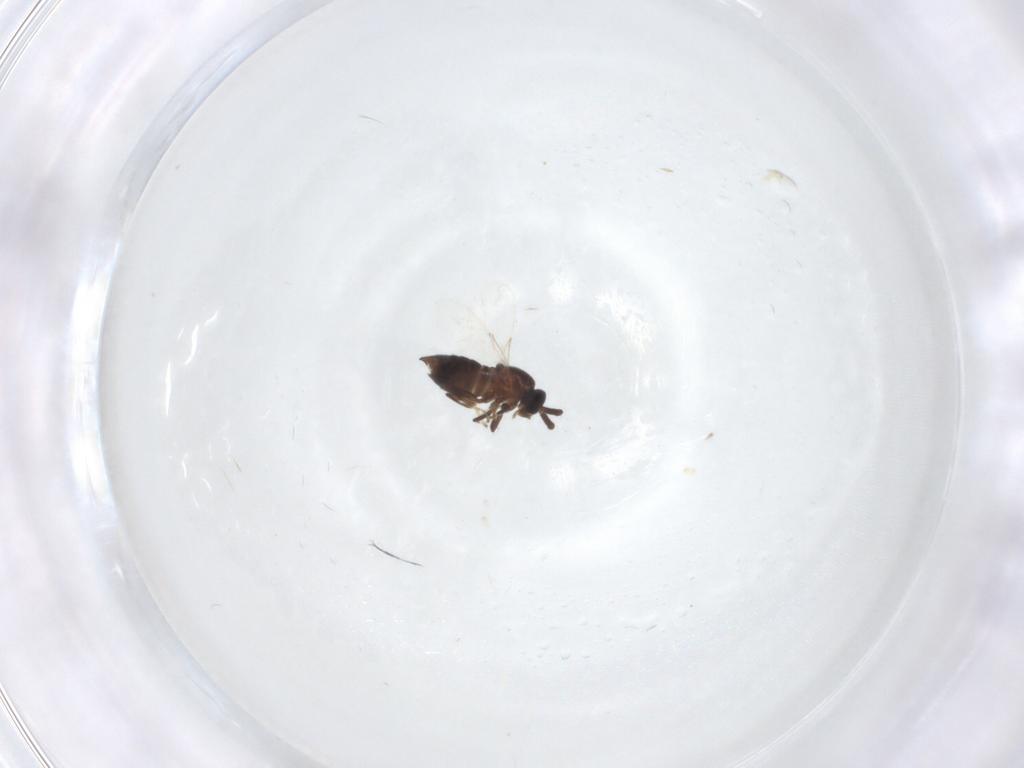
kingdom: Animalia
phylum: Arthropoda
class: Insecta
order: Diptera
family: Scatopsidae
